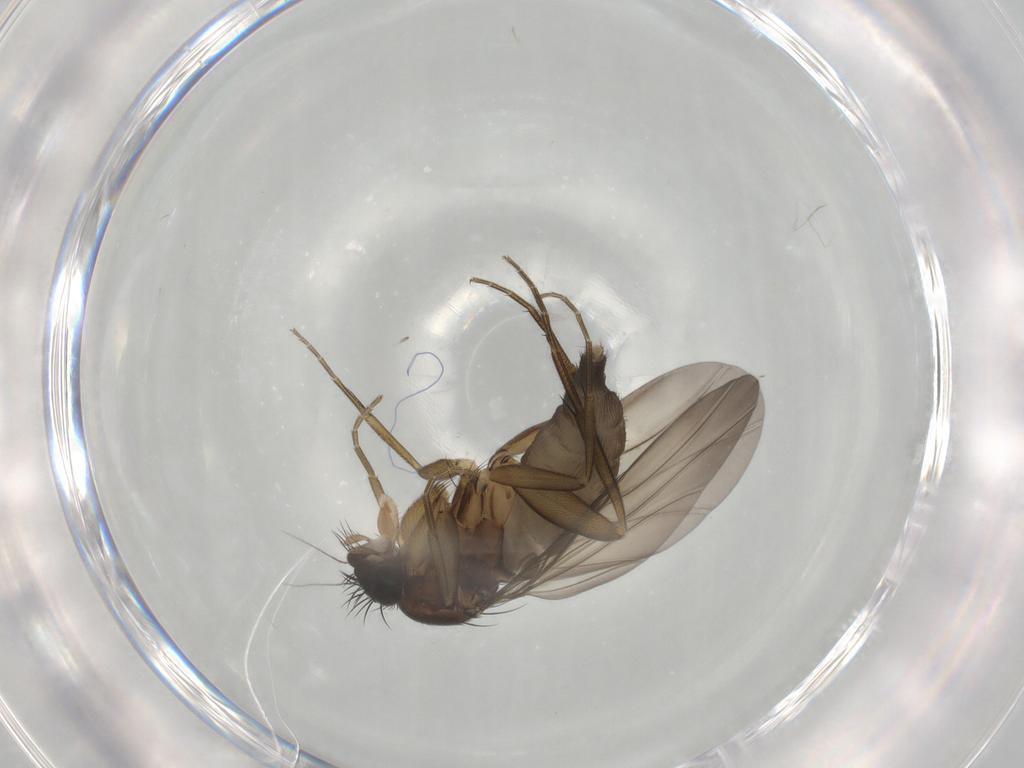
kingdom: Animalia
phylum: Arthropoda
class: Insecta
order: Diptera
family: Phoridae
